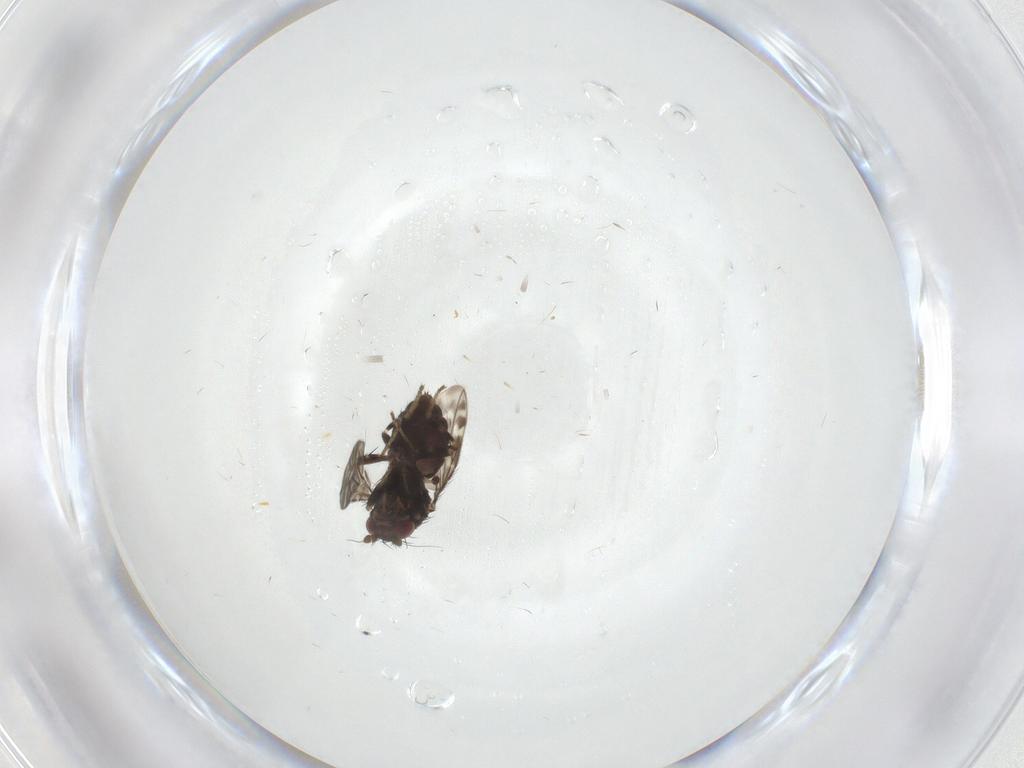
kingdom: Animalia
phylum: Arthropoda
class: Insecta
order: Diptera
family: Sphaeroceridae
